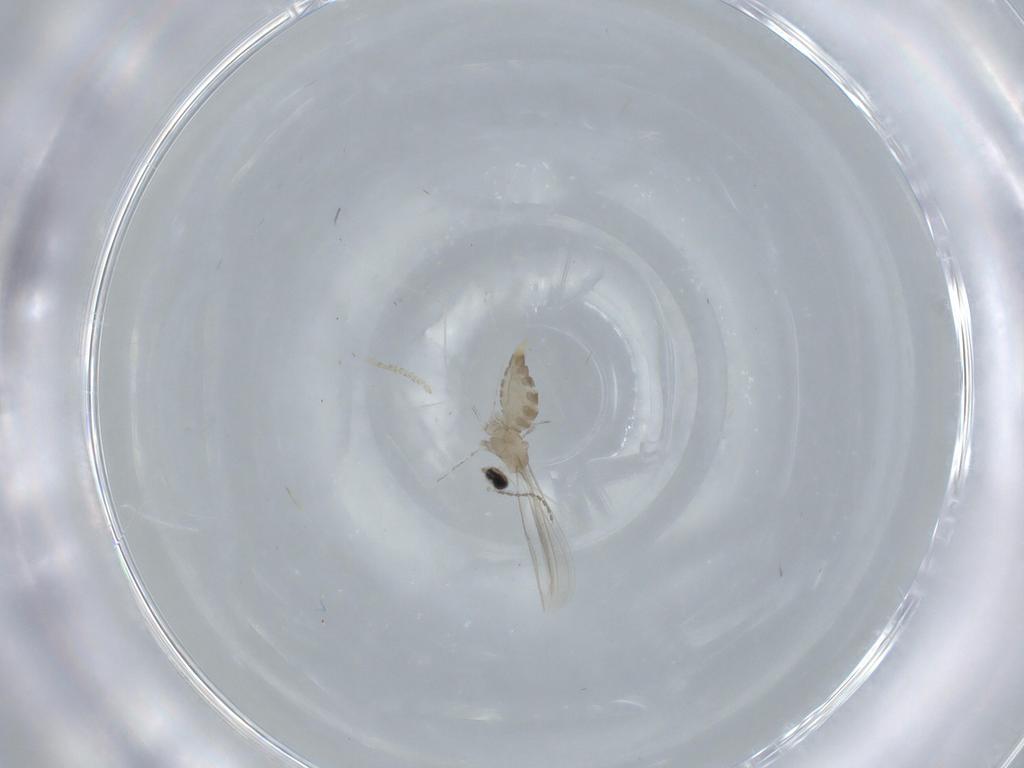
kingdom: Animalia
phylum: Arthropoda
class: Insecta
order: Diptera
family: Cecidomyiidae
